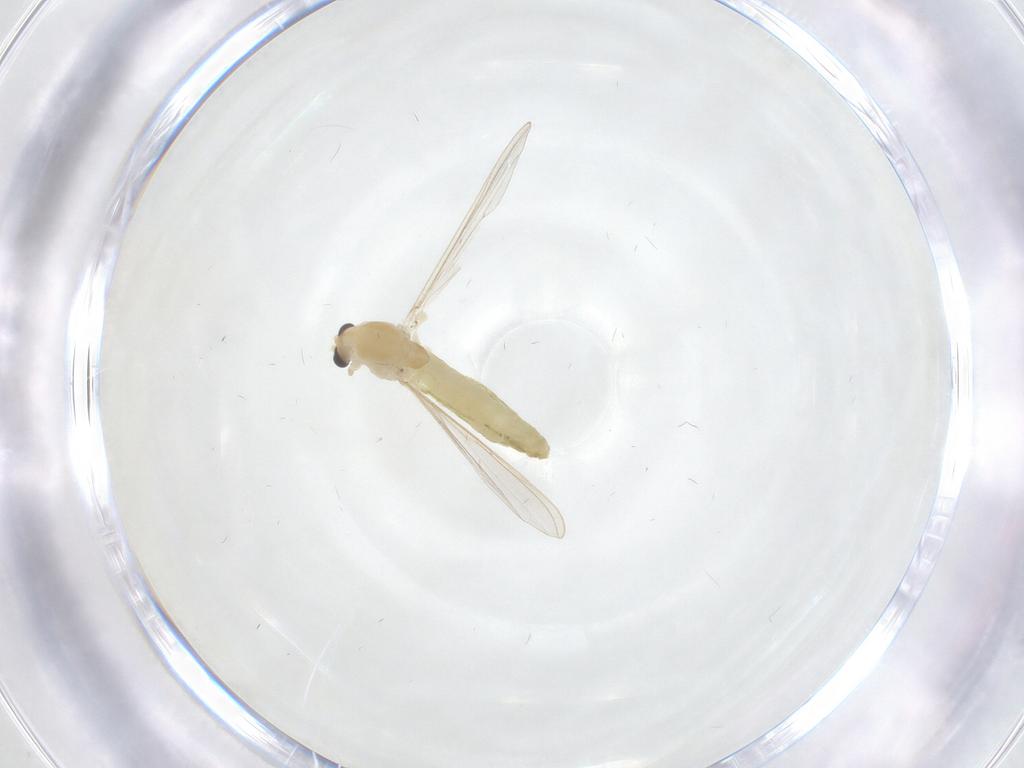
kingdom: Animalia
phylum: Arthropoda
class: Insecta
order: Diptera
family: Chironomidae
